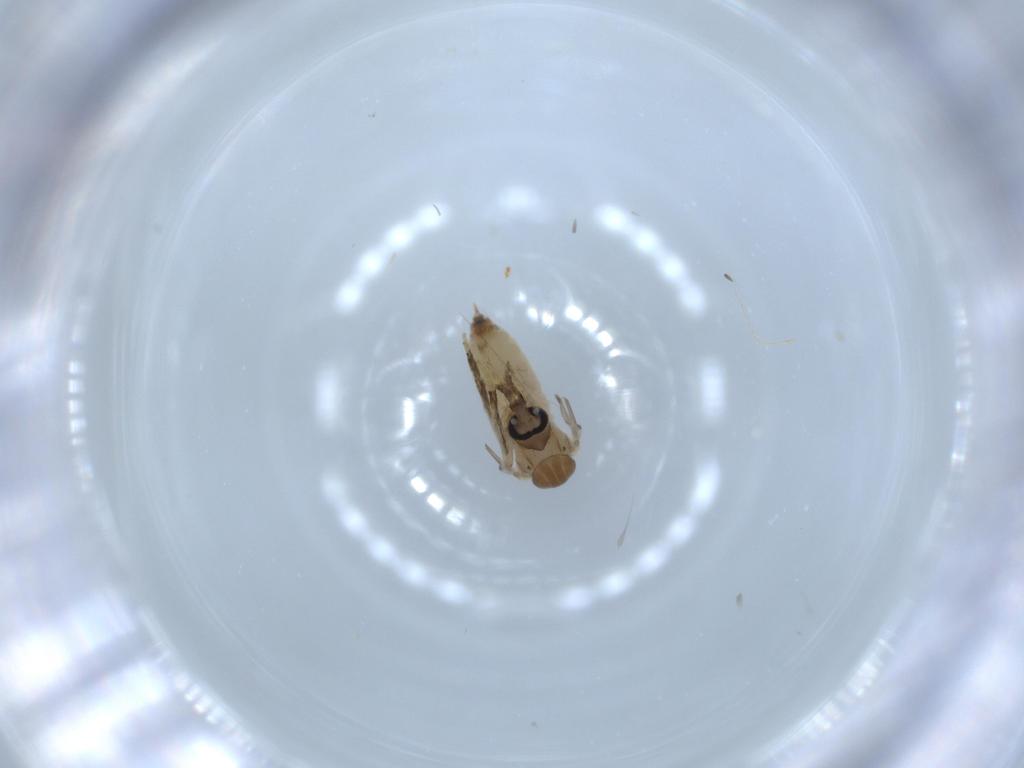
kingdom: Animalia
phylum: Arthropoda
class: Insecta
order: Diptera
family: Psychodidae
